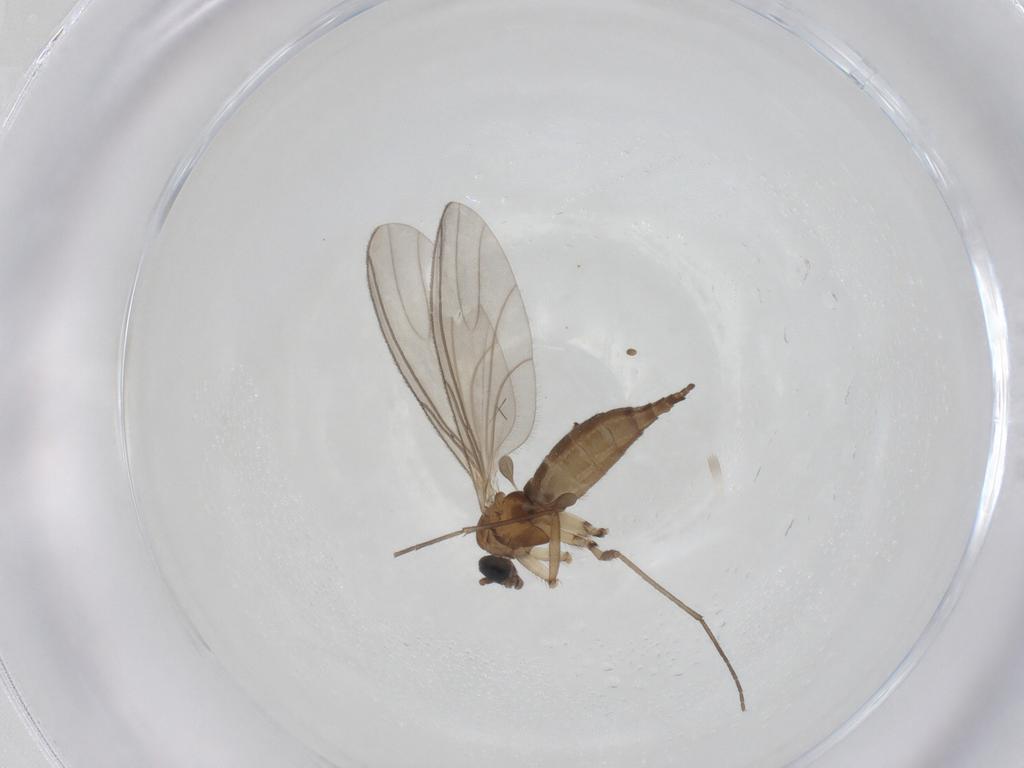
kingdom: Animalia
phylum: Arthropoda
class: Insecta
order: Diptera
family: Sciaridae
